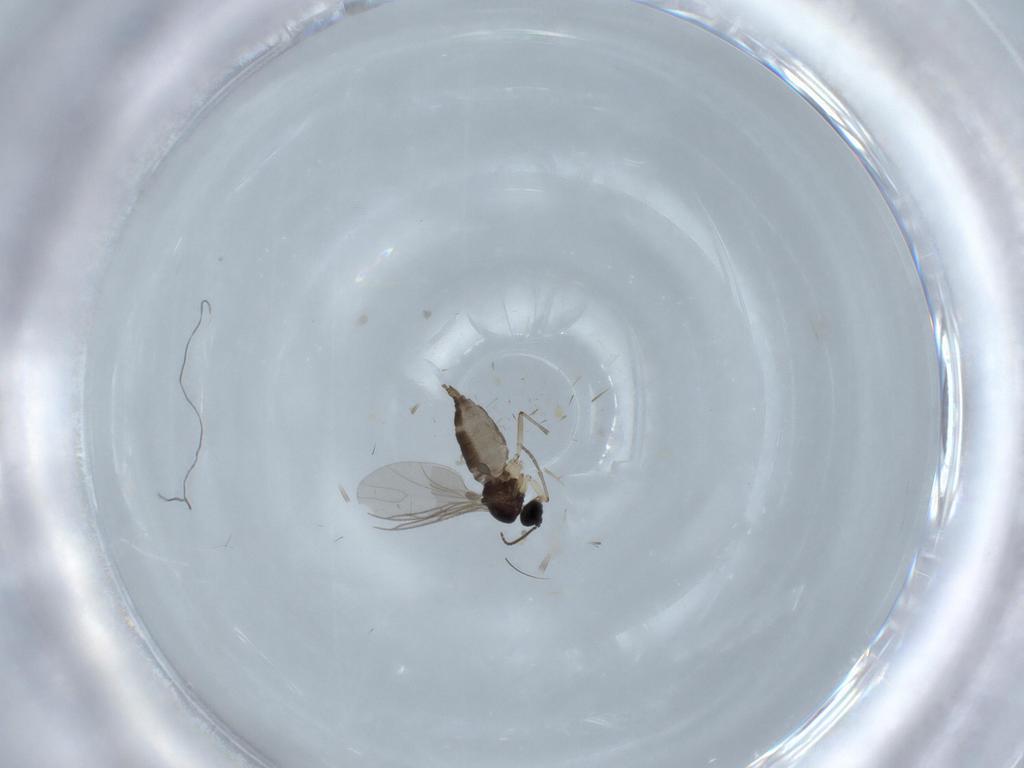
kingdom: Animalia
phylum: Arthropoda
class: Insecta
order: Diptera
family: Sciaridae
